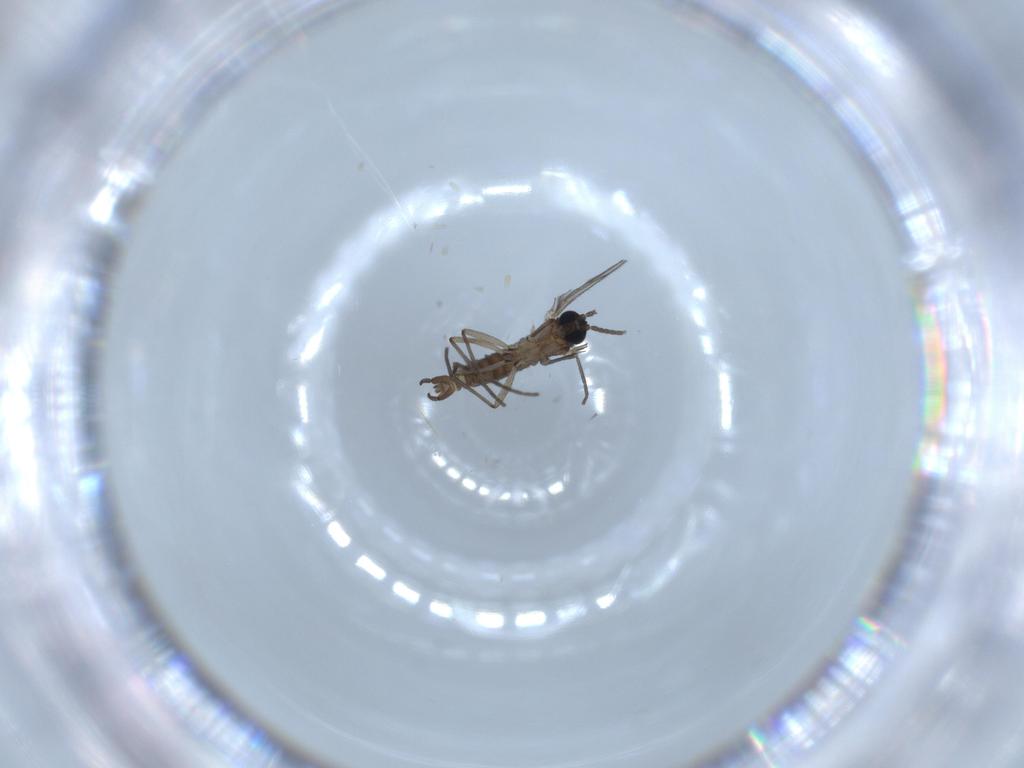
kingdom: Animalia
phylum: Arthropoda
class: Insecta
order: Diptera
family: Sciaridae
